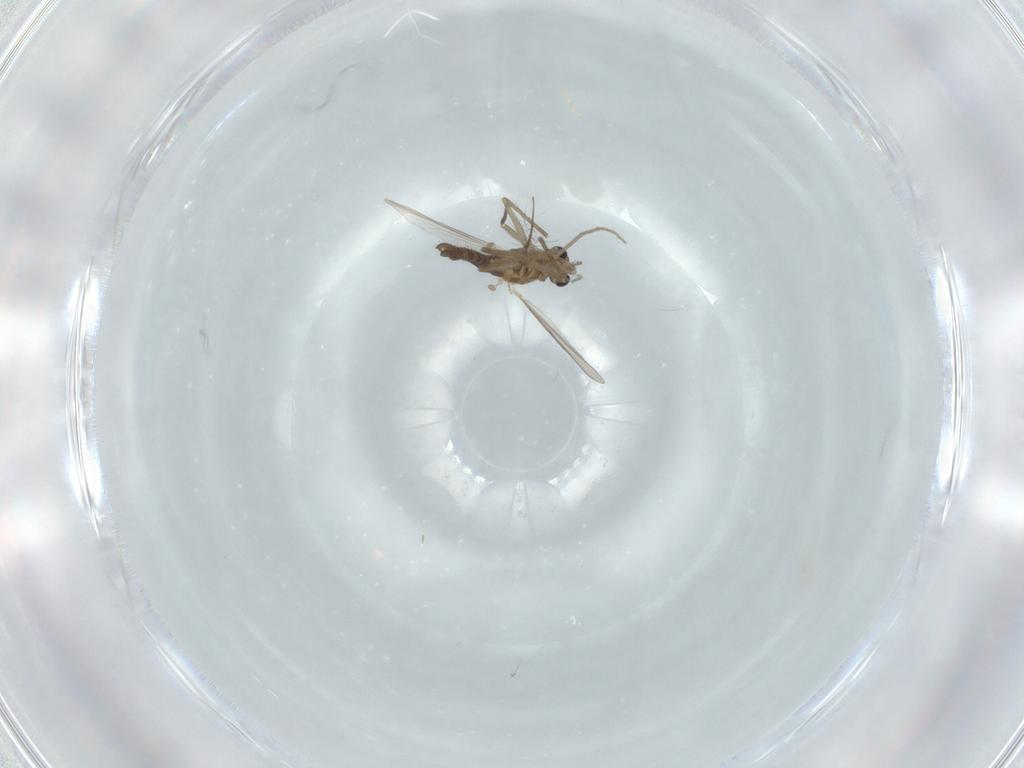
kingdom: Animalia
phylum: Arthropoda
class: Insecta
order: Diptera
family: Chironomidae
